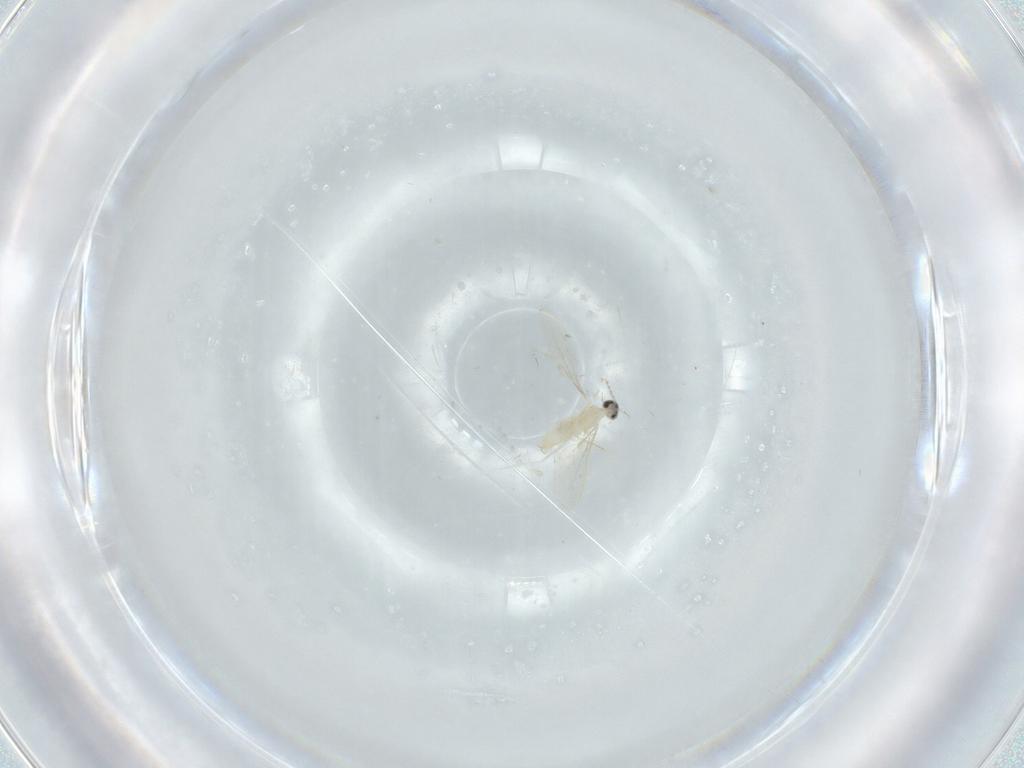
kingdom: Animalia
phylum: Arthropoda
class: Insecta
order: Diptera
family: Cecidomyiidae
